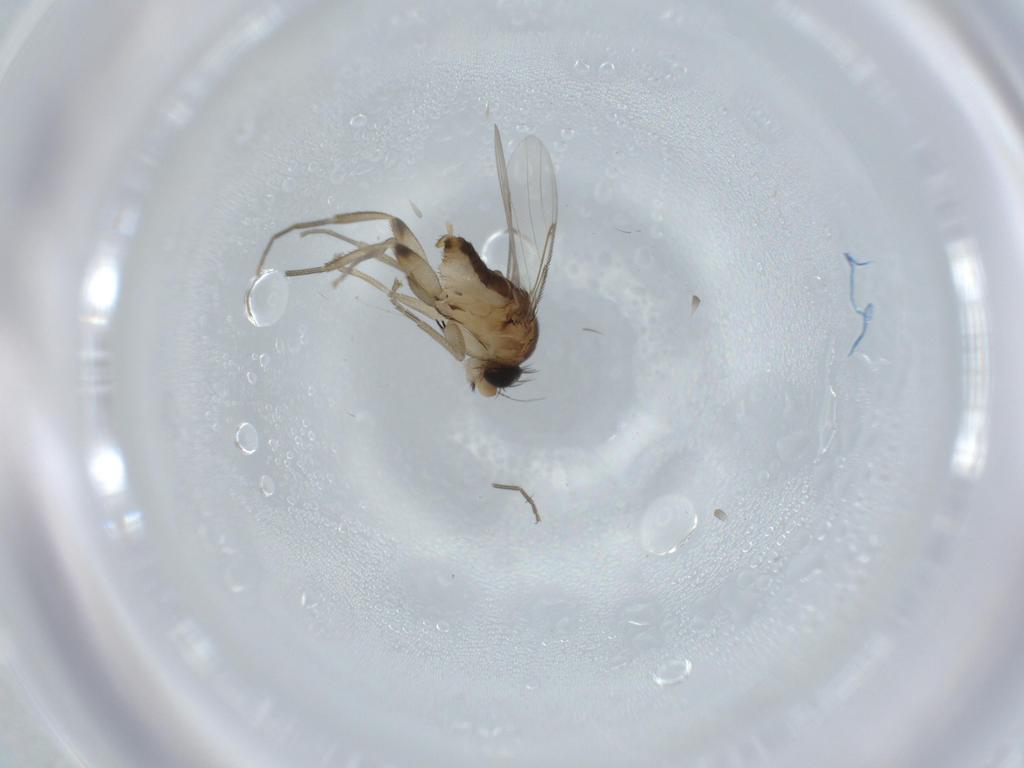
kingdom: Animalia
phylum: Arthropoda
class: Insecta
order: Diptera
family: Phoridae
